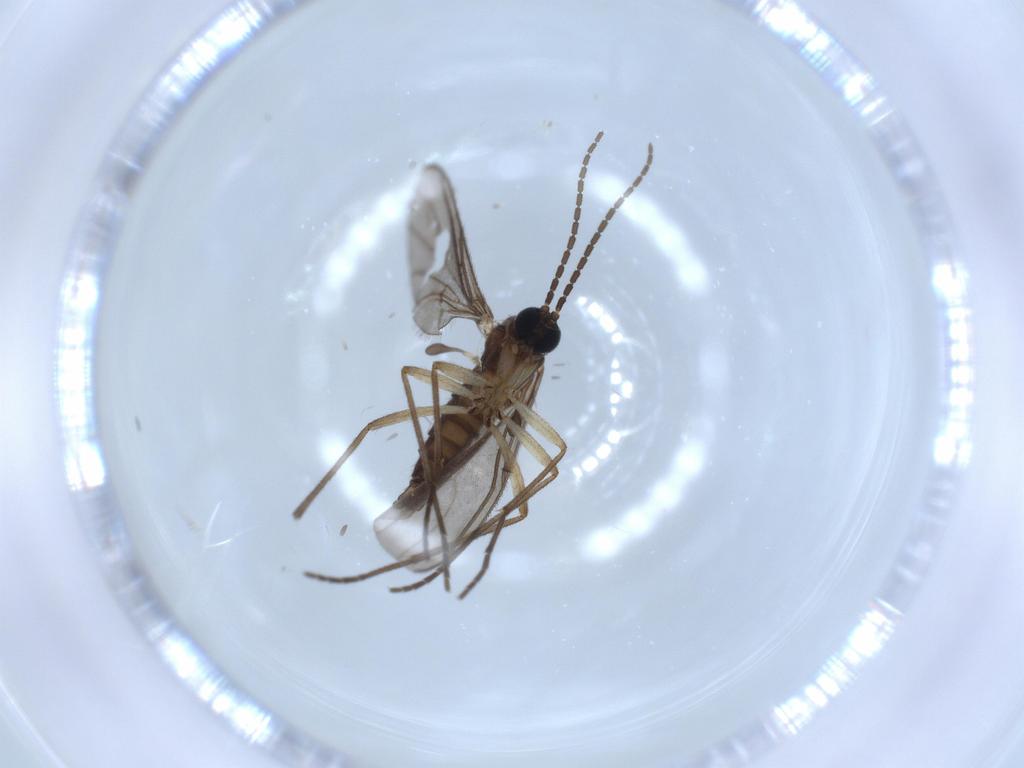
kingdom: Animalia
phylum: Arthropoda
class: Insecta
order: Diptera
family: Sciaridae
